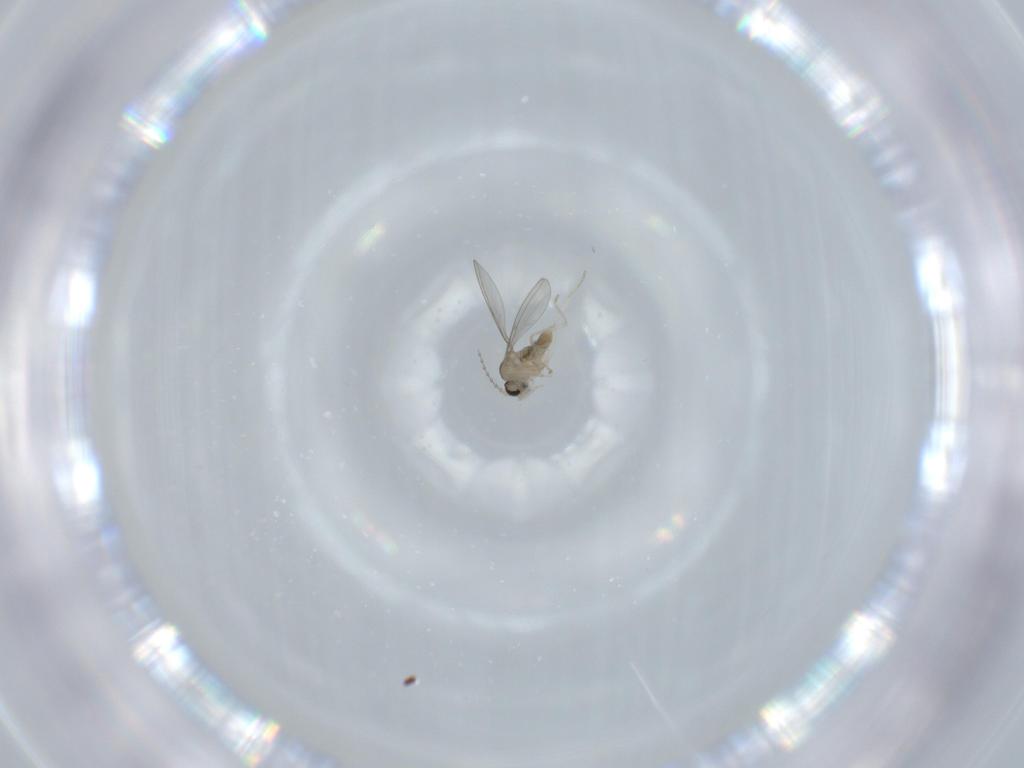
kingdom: Animalia
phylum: Arthropoda
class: Insecta
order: Diptera
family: Cecidomyiidae
